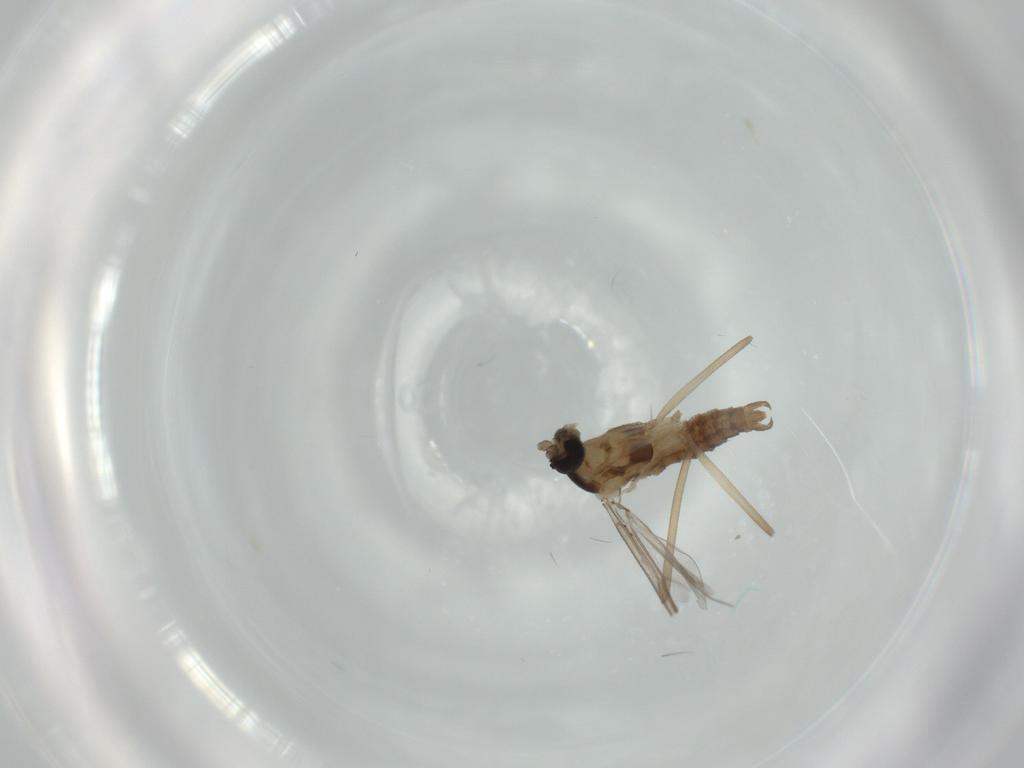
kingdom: Animalia
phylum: Arthropoda
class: Insecta
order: Diptera
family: Cecidomyiidae
